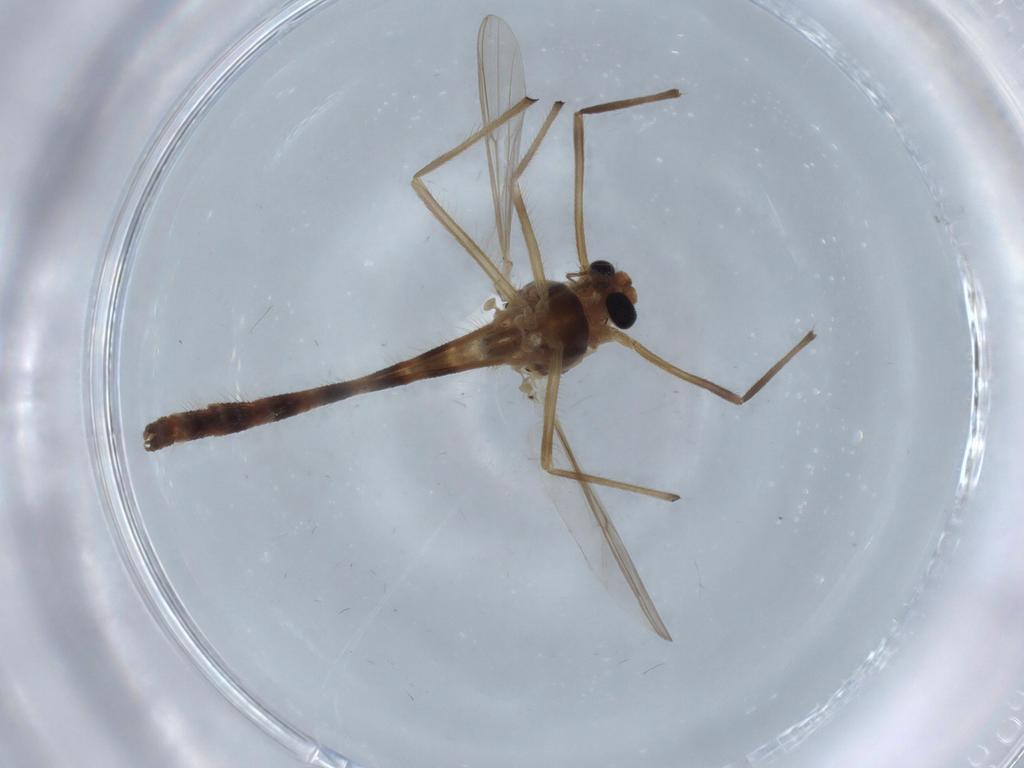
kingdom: Animalia
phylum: Arthropoda
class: Insecta
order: Diptera
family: Chironomidae
